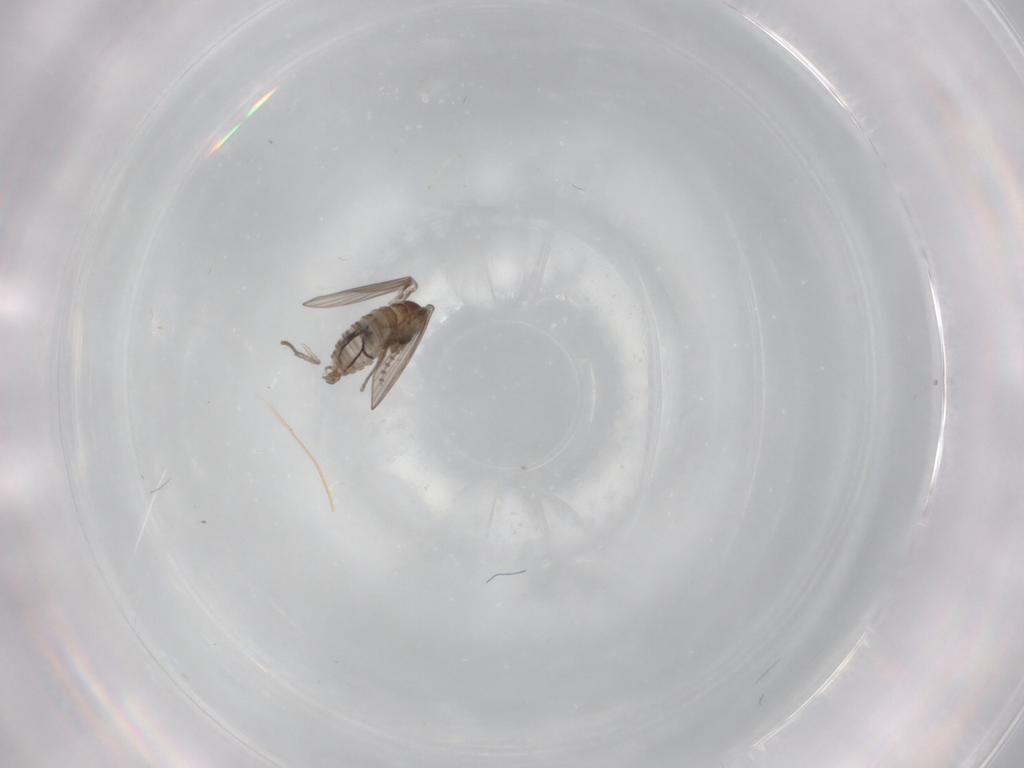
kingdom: Animalia
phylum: Arthropoda
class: Insecta
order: Diptera
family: Psychodidae
